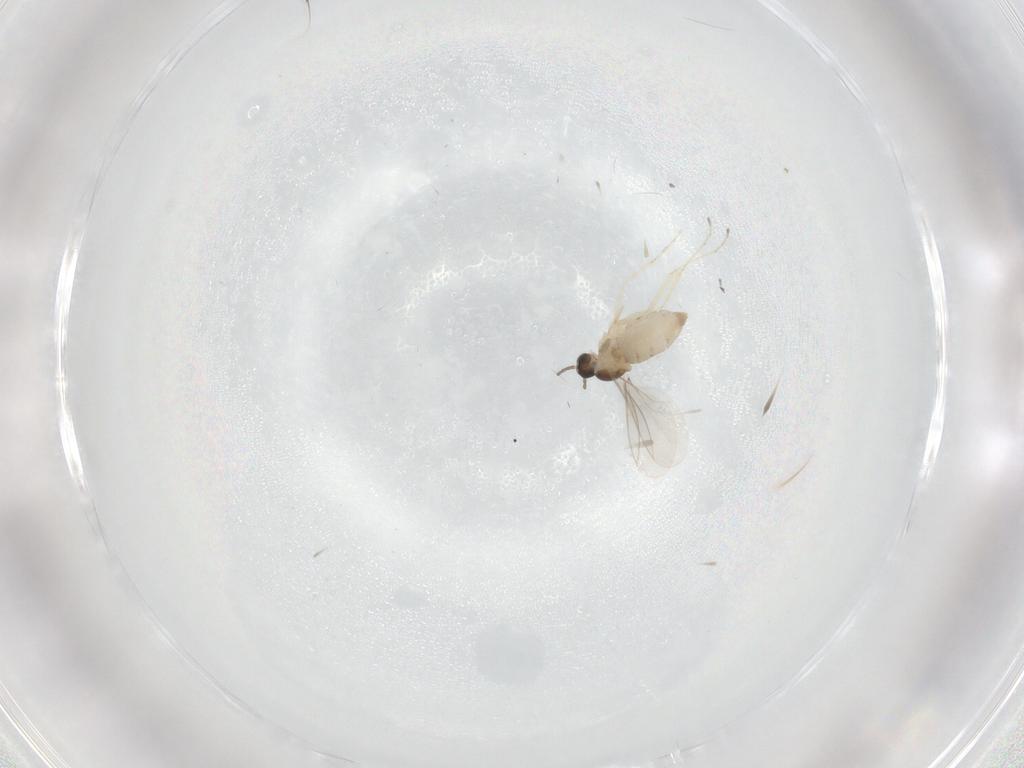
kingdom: Animalia
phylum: Arthropoda
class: Insecta
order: Diptera
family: Cecidomyiidae
